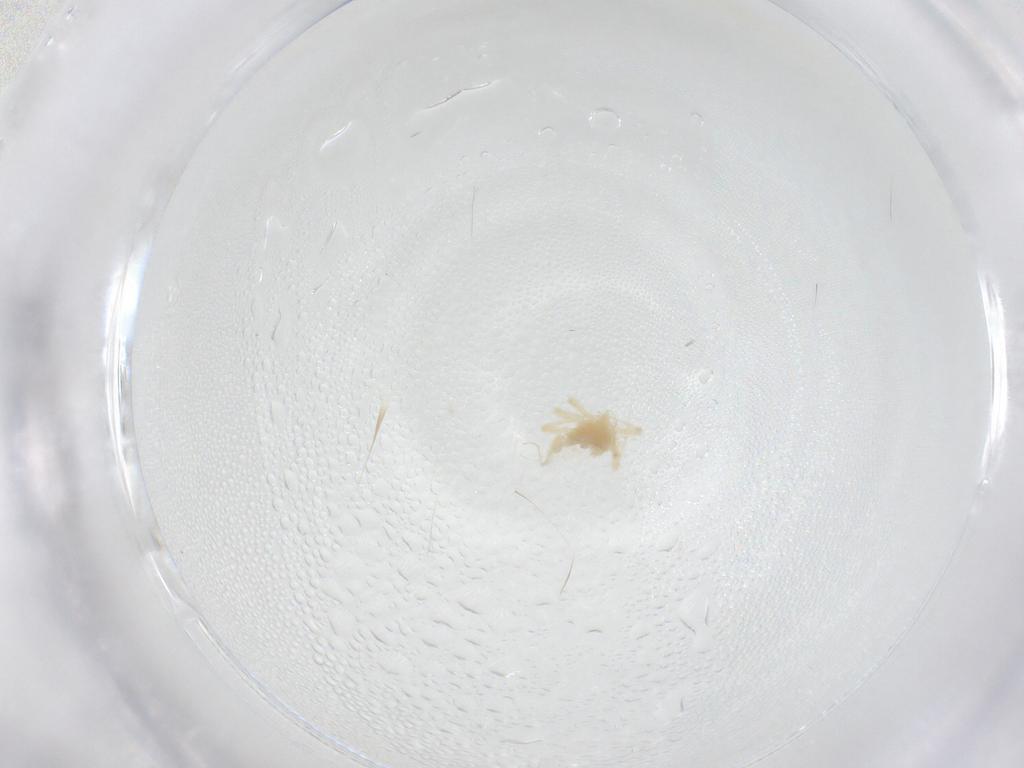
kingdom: Animalia
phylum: Arthropoda
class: Arachnida
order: Trombidiformes
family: Anystidae
